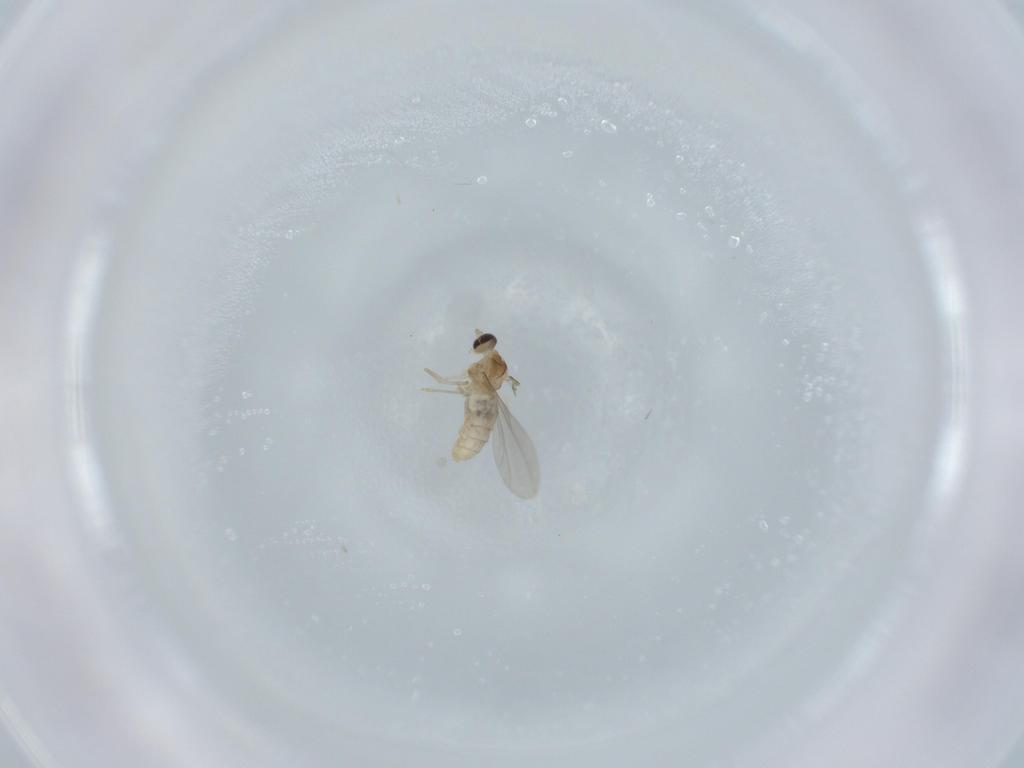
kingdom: Animalia
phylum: Arthropoda
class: Insecta
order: Diptera
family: Cecidomyiidae
